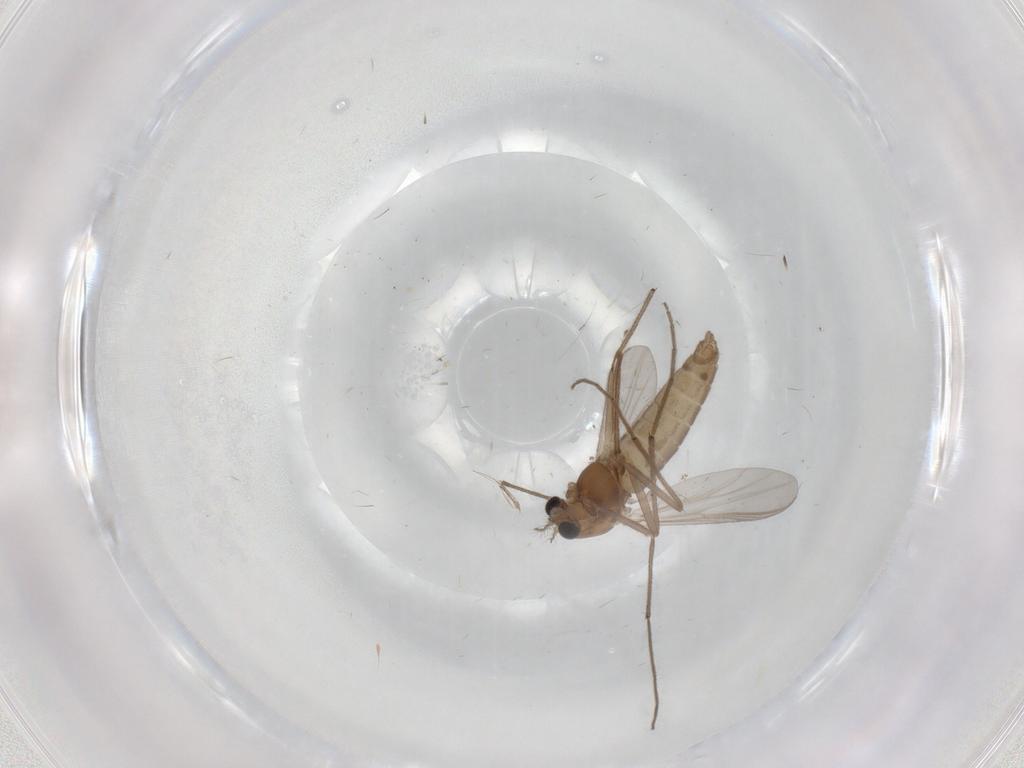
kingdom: Animalia
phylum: Arthropoda
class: Insecta
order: Diptera
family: Chironomidae
